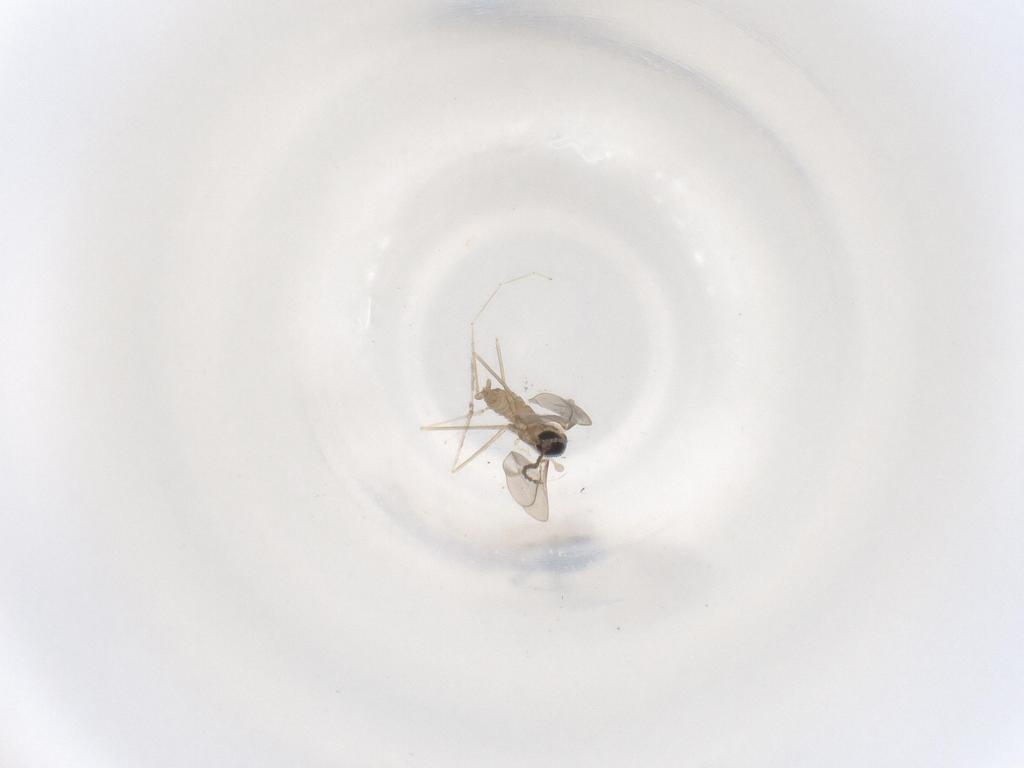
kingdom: Animalia
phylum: Arthropoda
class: Insecta
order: Diptera
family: Cecidomyiidae
